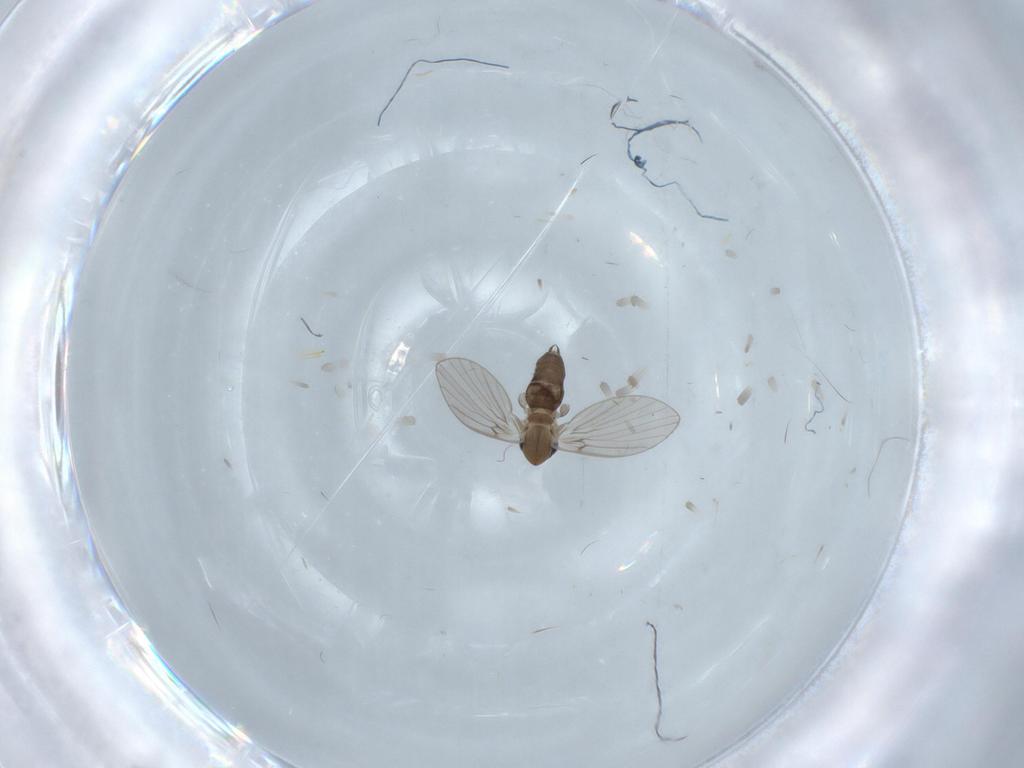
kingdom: Animalia
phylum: Arthropoda
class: Insecta
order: Diptera
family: Psychodidae
